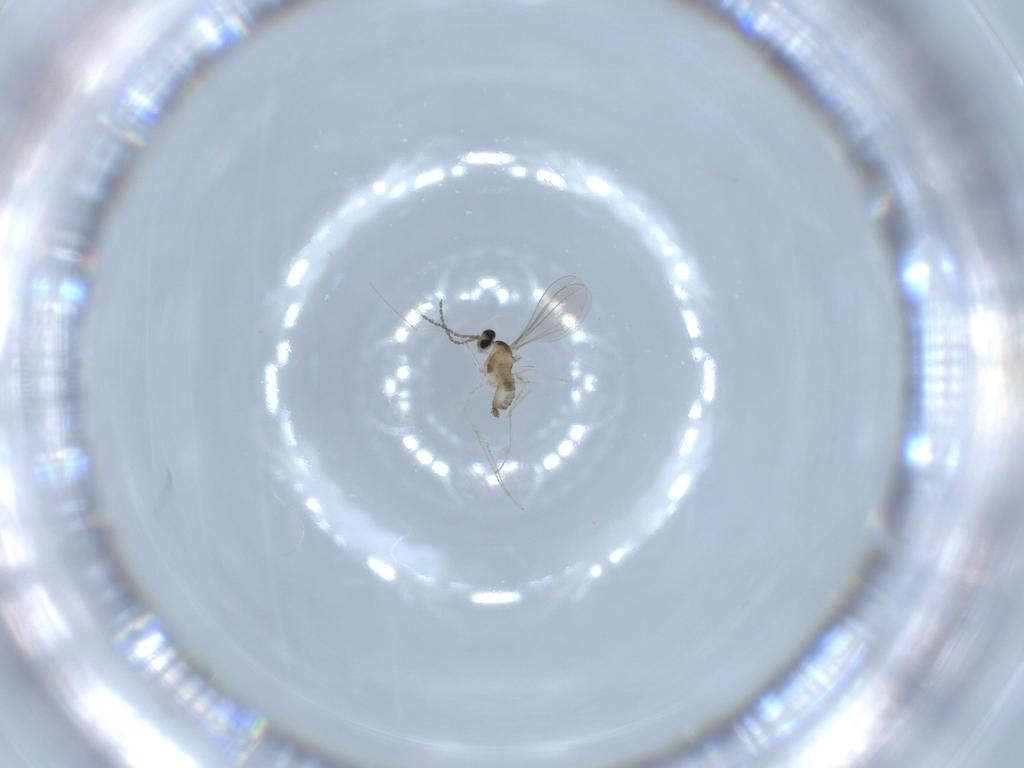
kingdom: Animalia
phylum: Arthropoda
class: Insecta
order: Diptera
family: Cecidomyiidae
